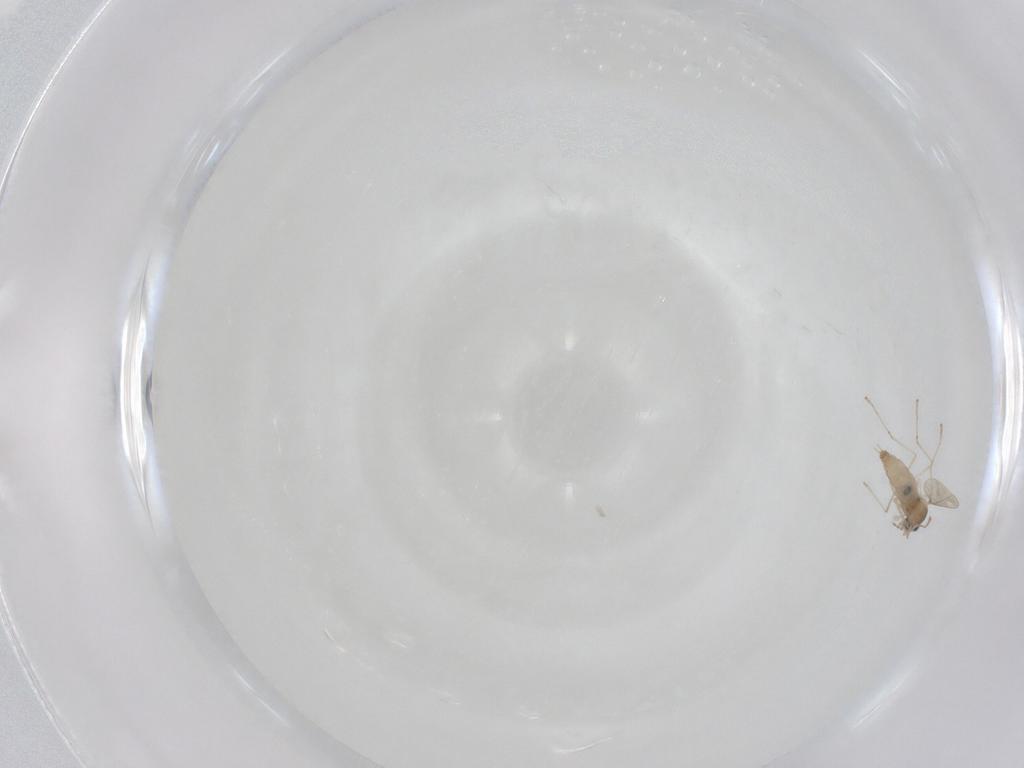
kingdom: Animalia
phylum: Arthropoda
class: Insecta
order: Diptera
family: Mycetophilidae
